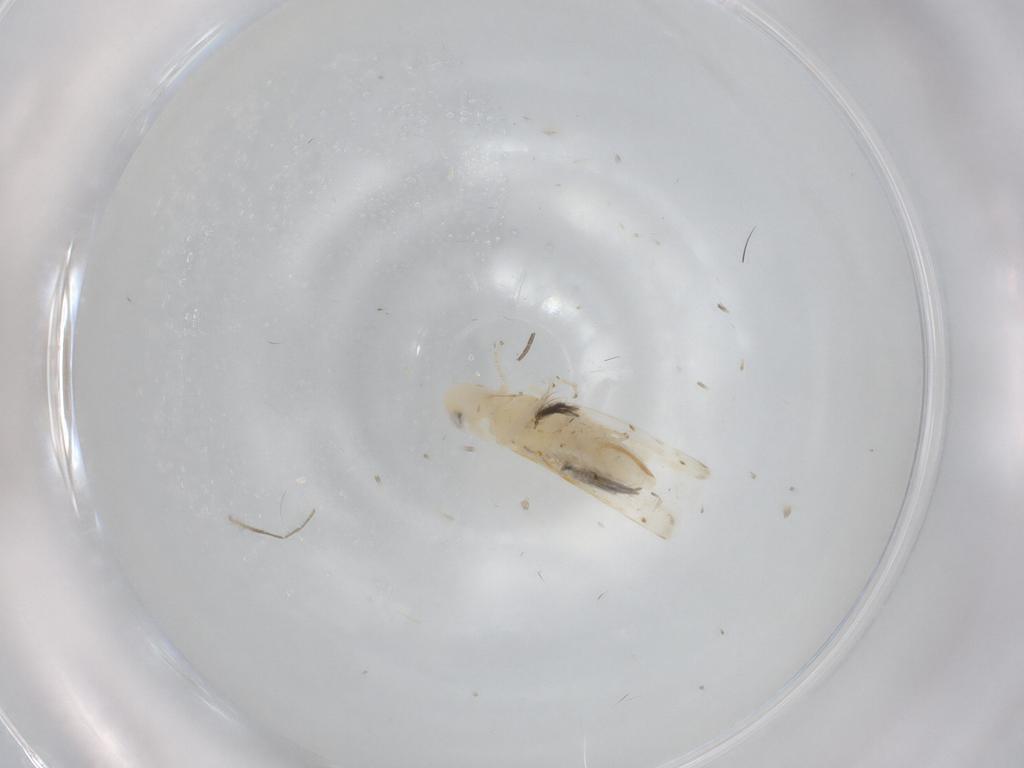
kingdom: Animalia
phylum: Arthropoda
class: Insecta
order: Hemiptera
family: Cicadellidae
